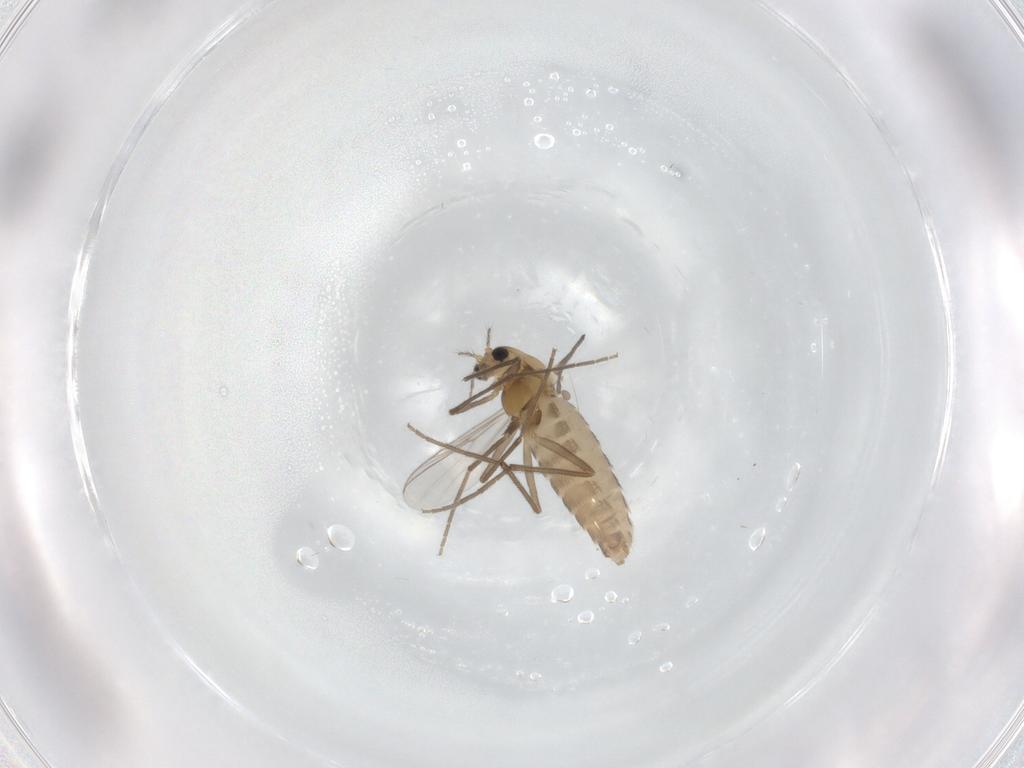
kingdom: Animalia
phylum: Arthropoda
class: Insecta
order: Diptera
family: Chironomidae
